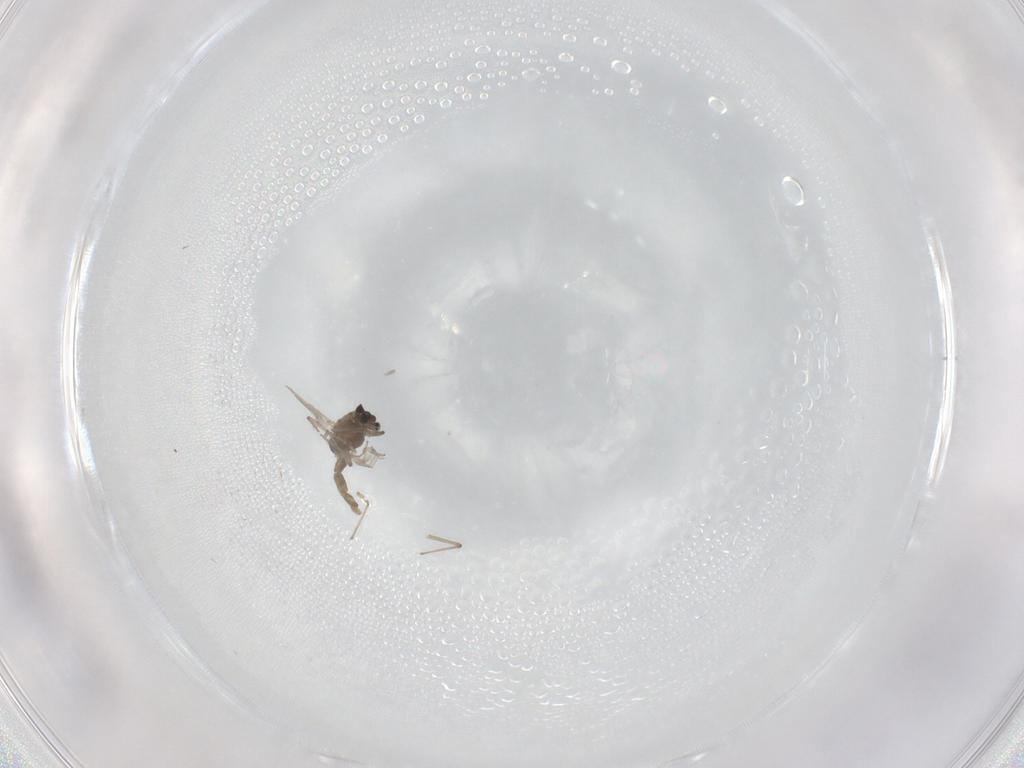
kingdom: Animalia
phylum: Arthropoda
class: Insecta
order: Diptera
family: Chironomidae
